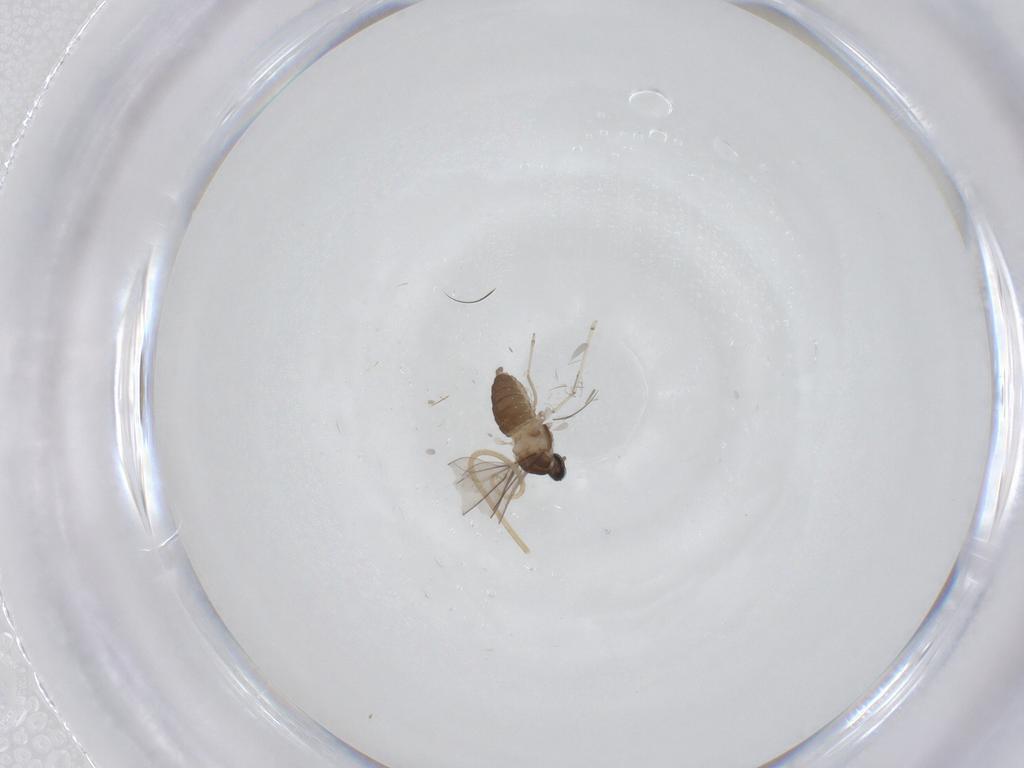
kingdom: Animalia
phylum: Arthropoda
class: Insecta
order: Diptera
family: Cecidomyiidae
